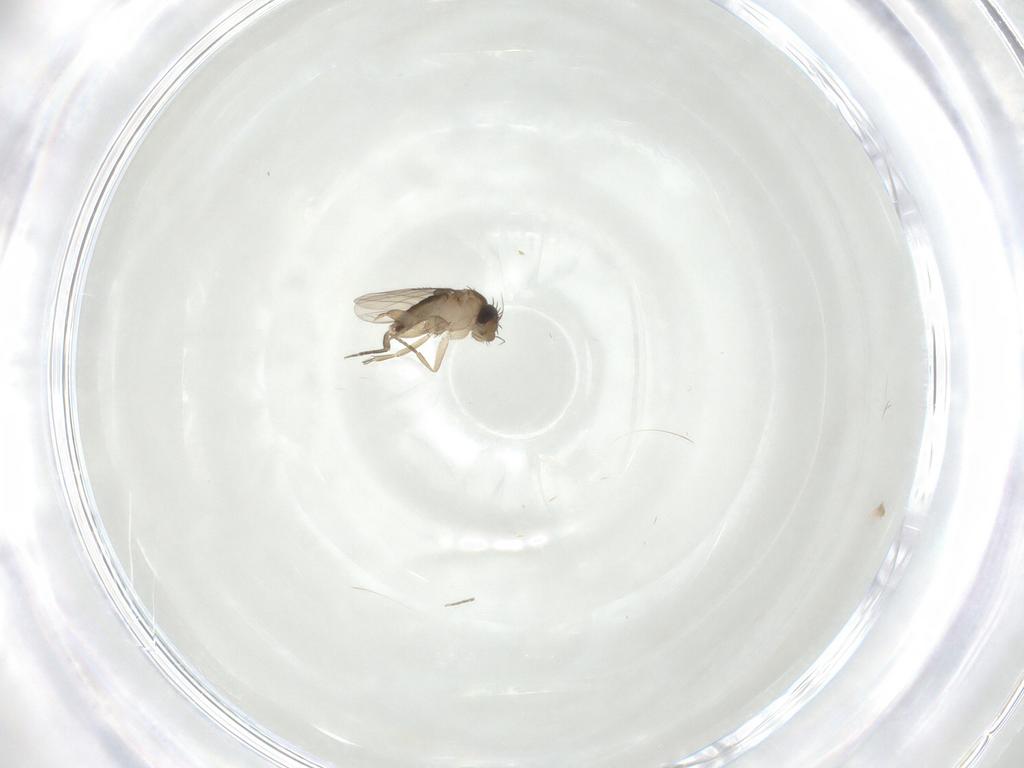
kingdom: Animalia
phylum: Arthropoda
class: Insecta
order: Diptera
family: Phoridae
